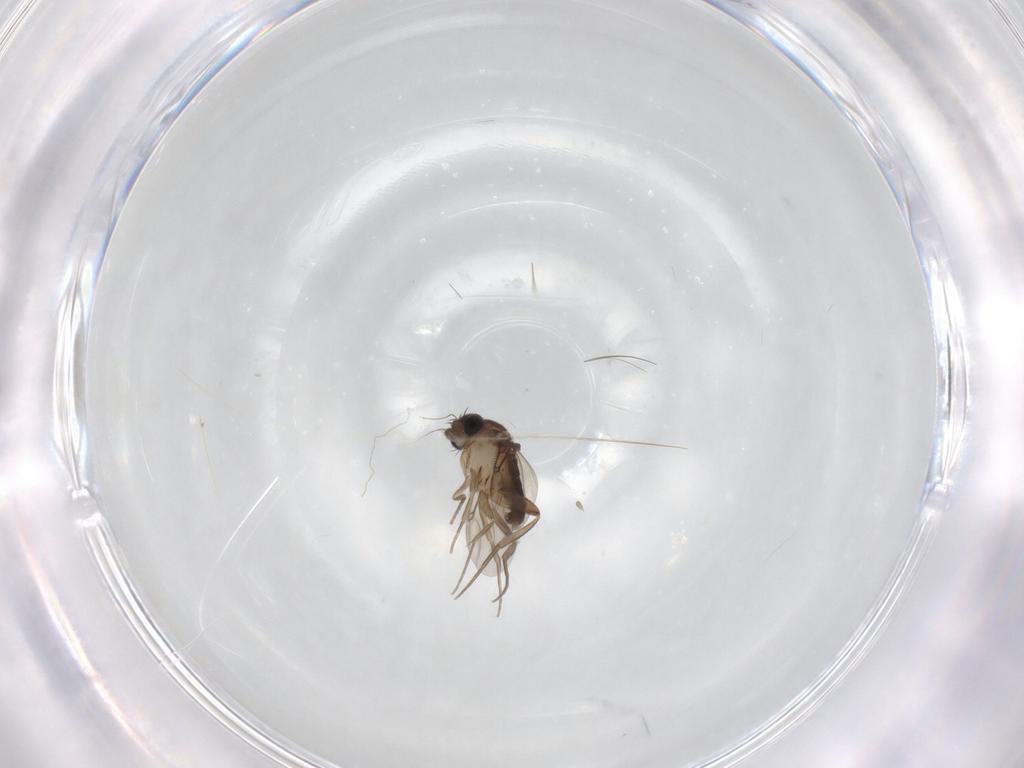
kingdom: Animalia
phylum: Arthropoda
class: Insecta
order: Diptera
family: Phoridae
